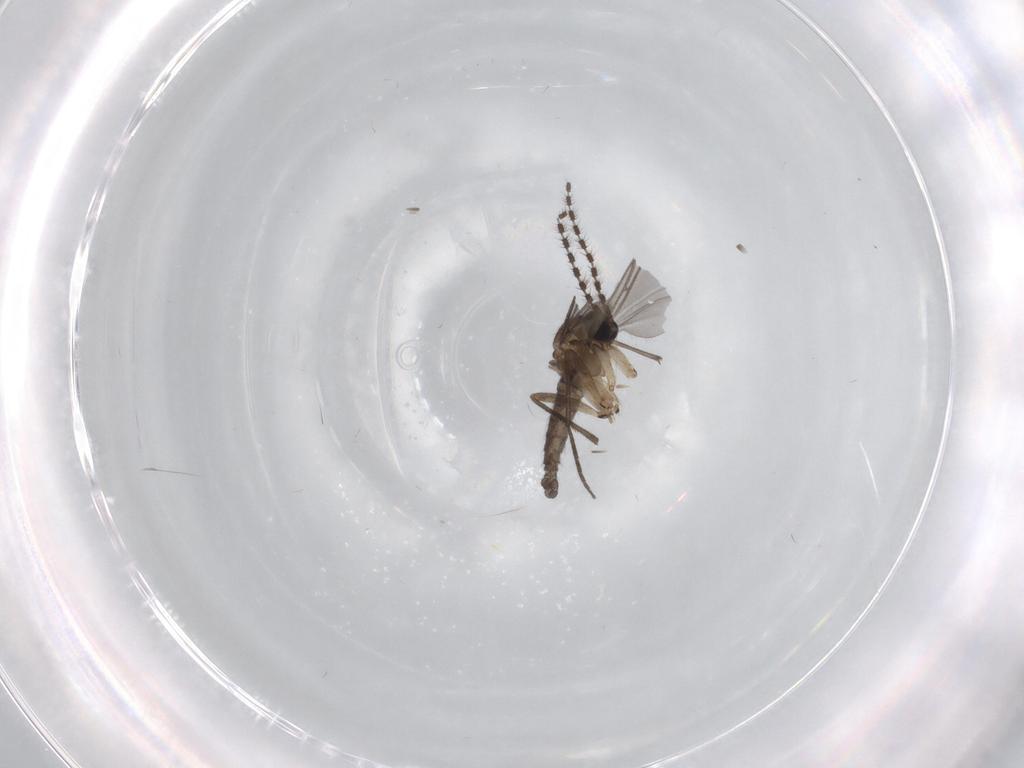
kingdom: Animalia
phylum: Arthropoda
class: Insecta
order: Diptera
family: Sciaridae
